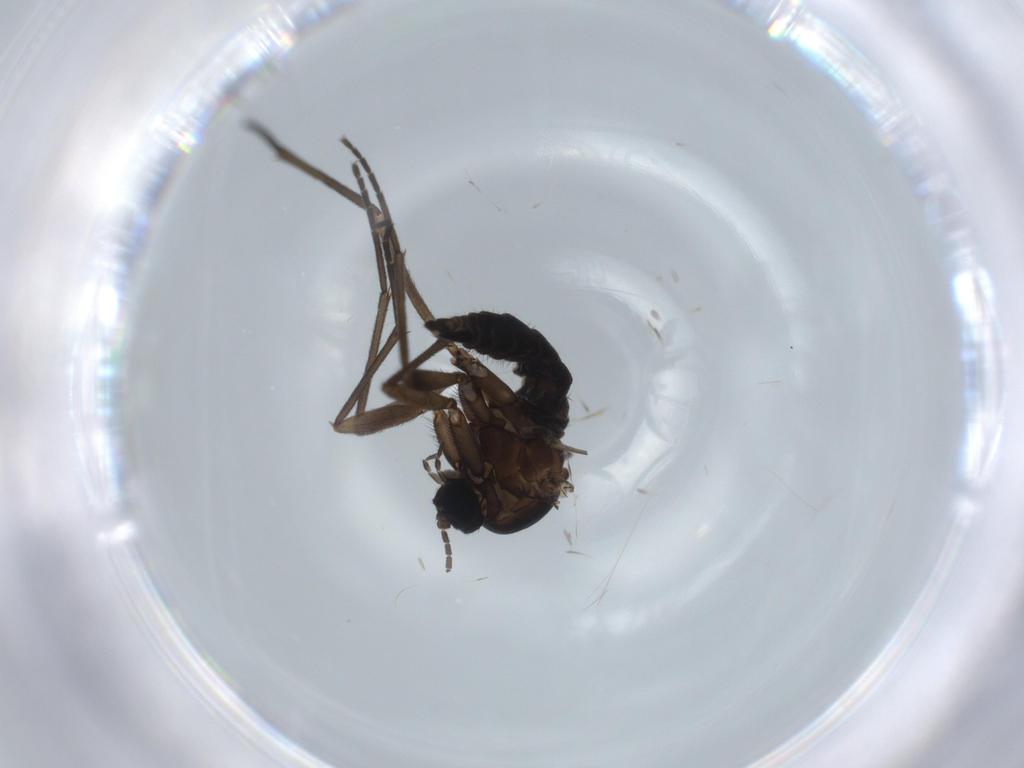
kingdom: Animalia
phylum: Arthropoda
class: Insecta
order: Diptera
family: Sciaridae
